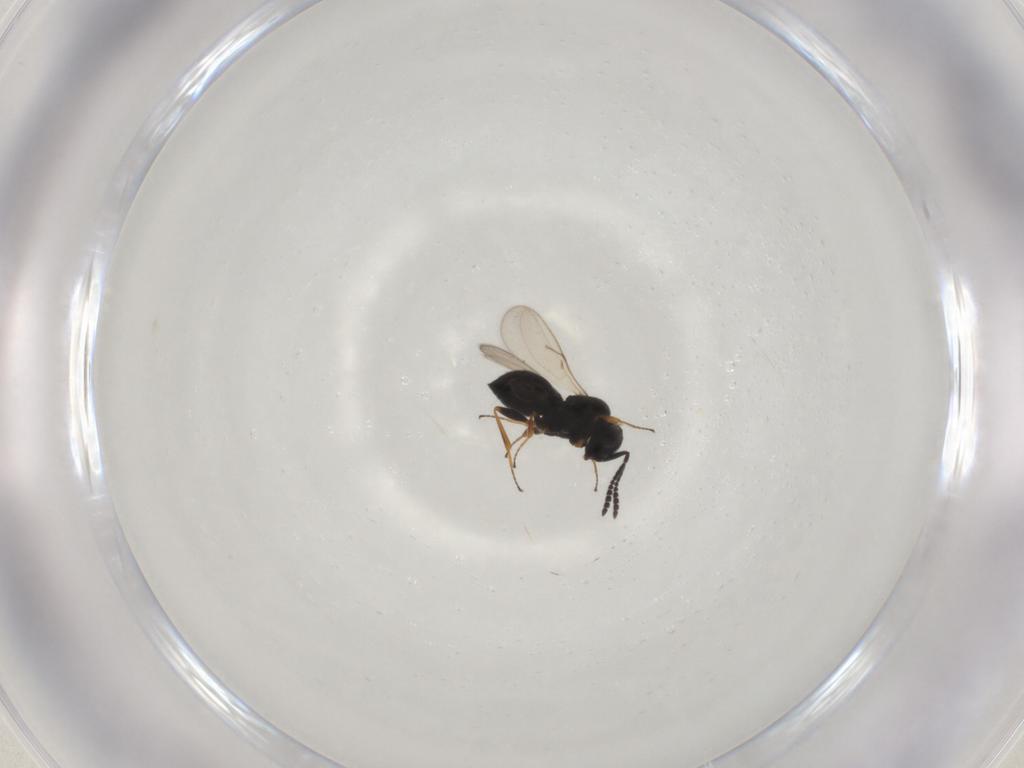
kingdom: Animalia
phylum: Arthropoda
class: Insecta
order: Hymenoptera
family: Scelionidae
